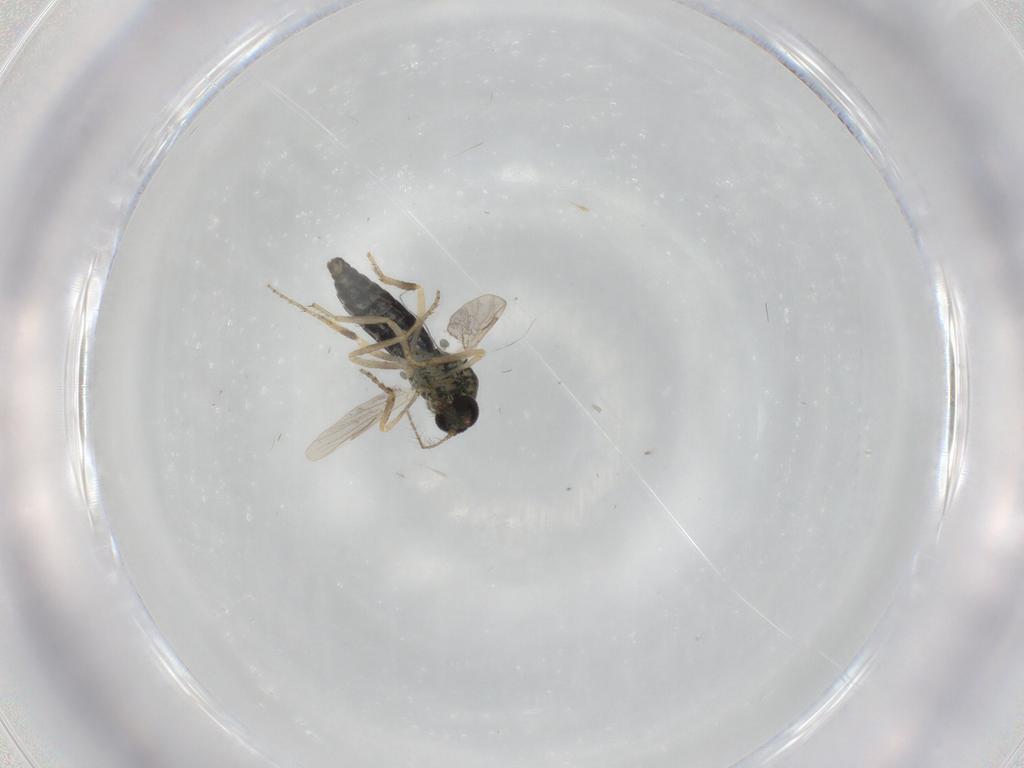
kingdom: Animalia
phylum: Arthropoda
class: Insecta
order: Diptera
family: Ceratopogonidae
